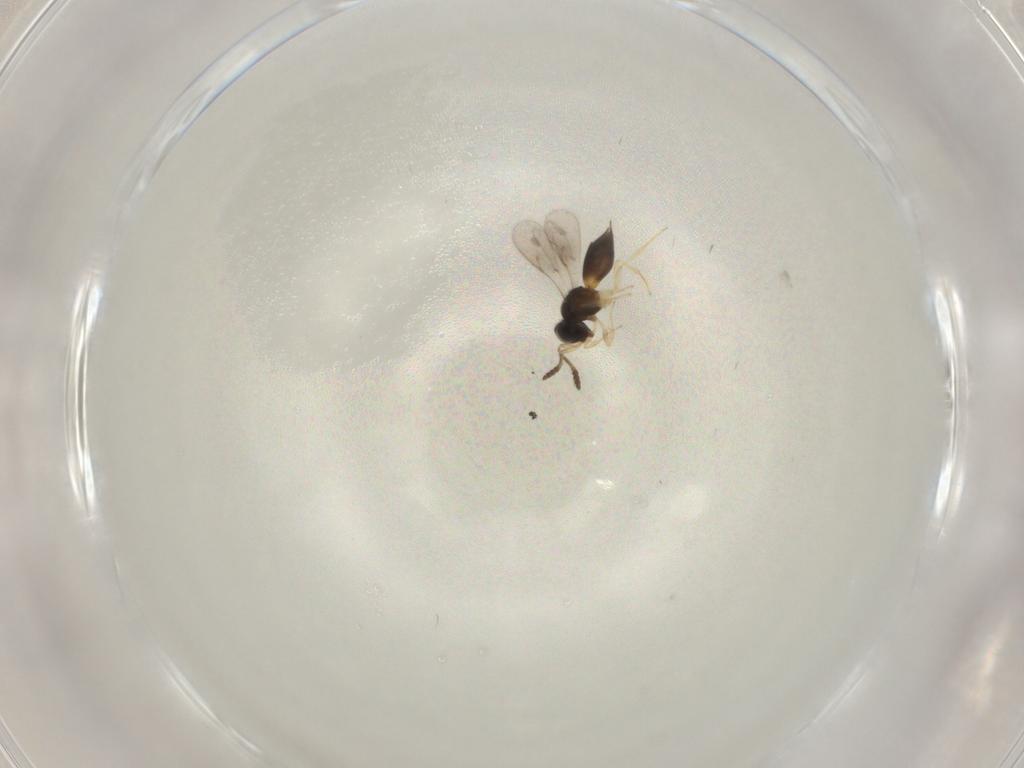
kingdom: Animalia
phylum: Arthropoda
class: Insecta
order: Hymenoptera
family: Scelionidae
